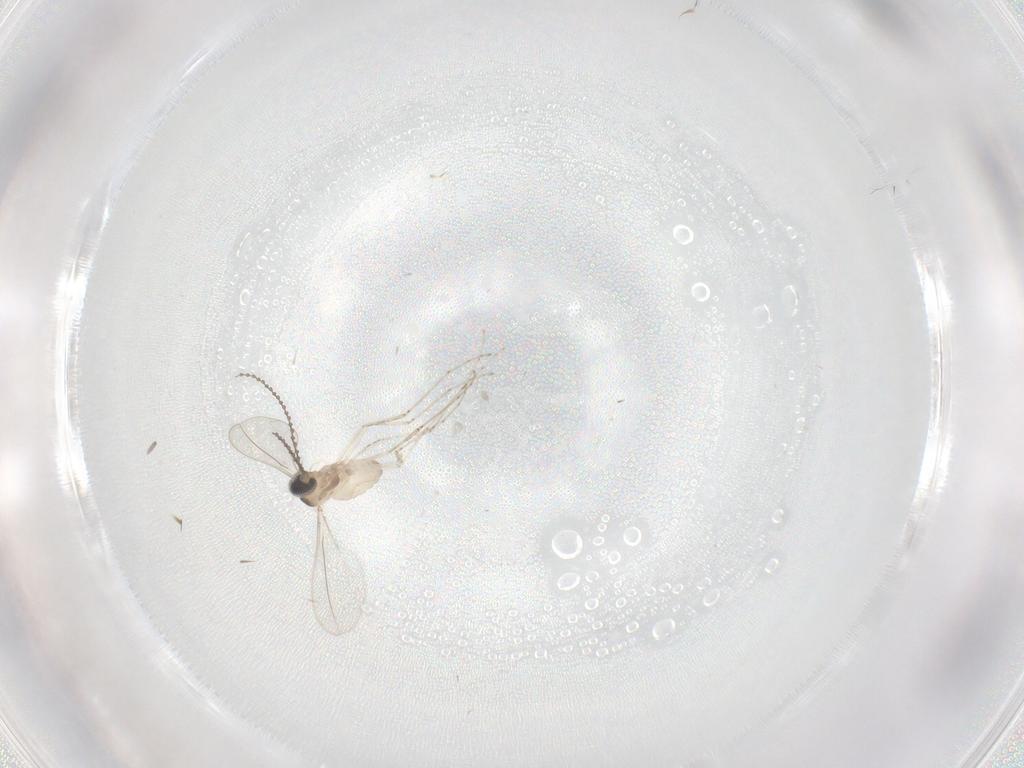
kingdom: Animalia
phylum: Arthropoda
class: Insecta
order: Diptera
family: Cecidomyiidae
